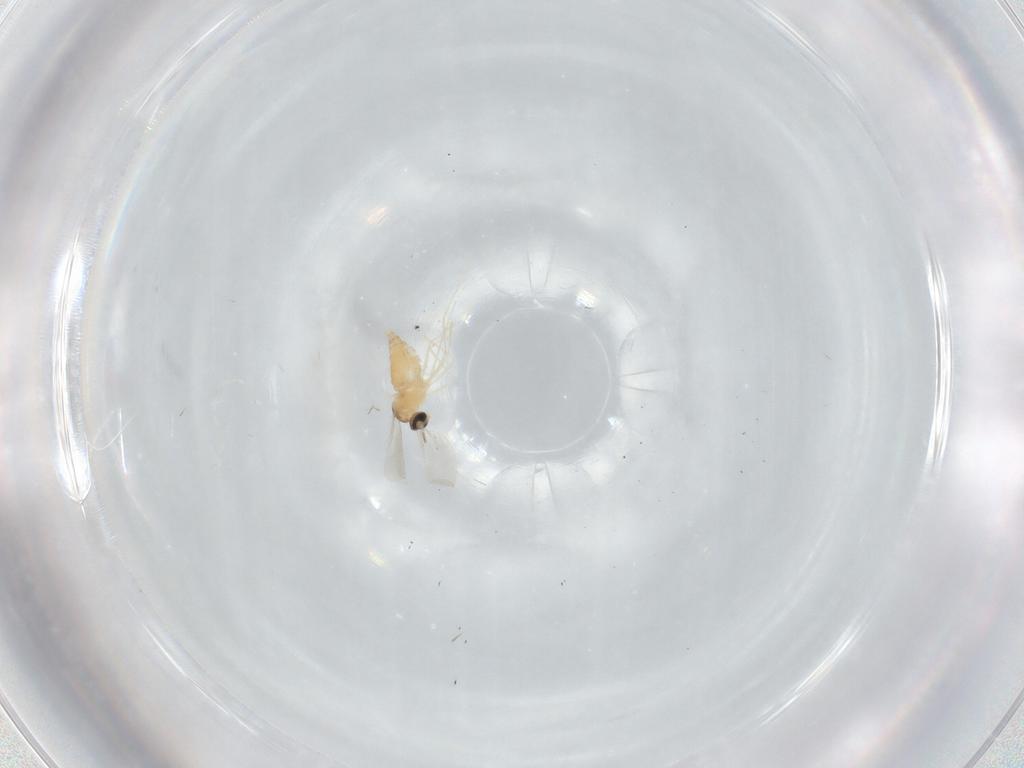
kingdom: Animalia
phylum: Arthropoda
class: Insecta
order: Diptera
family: Cecidomyiidae
